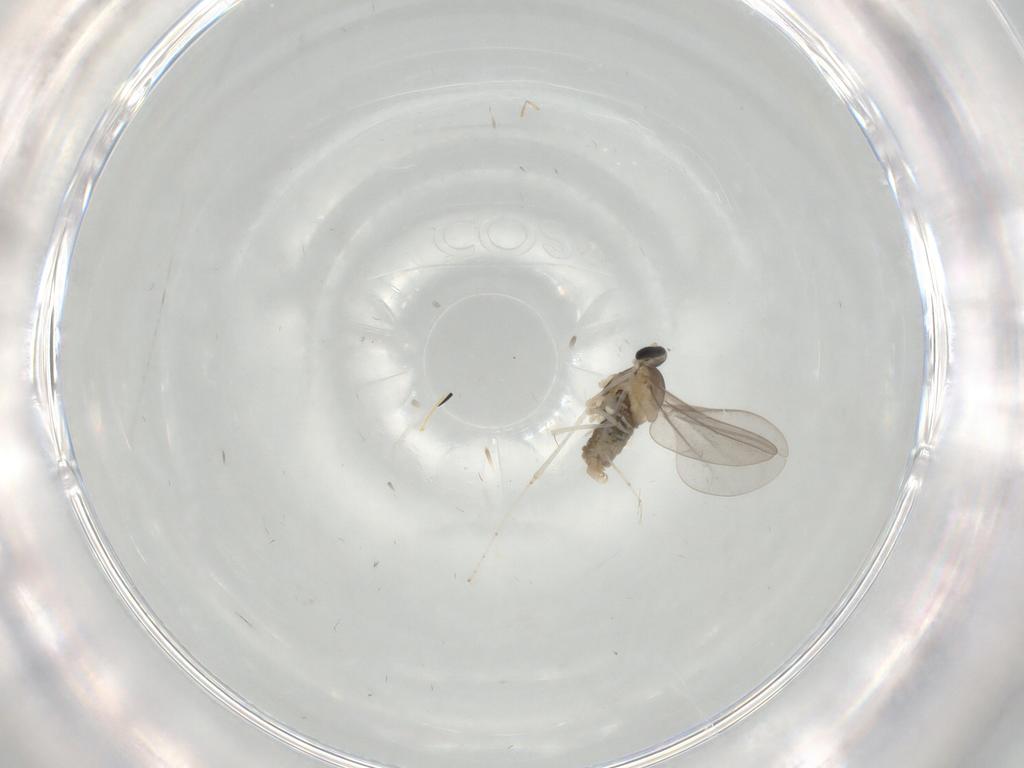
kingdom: Animalia
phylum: Arthropoda
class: Insecta
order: Diptera
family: Cecidomyiidae
